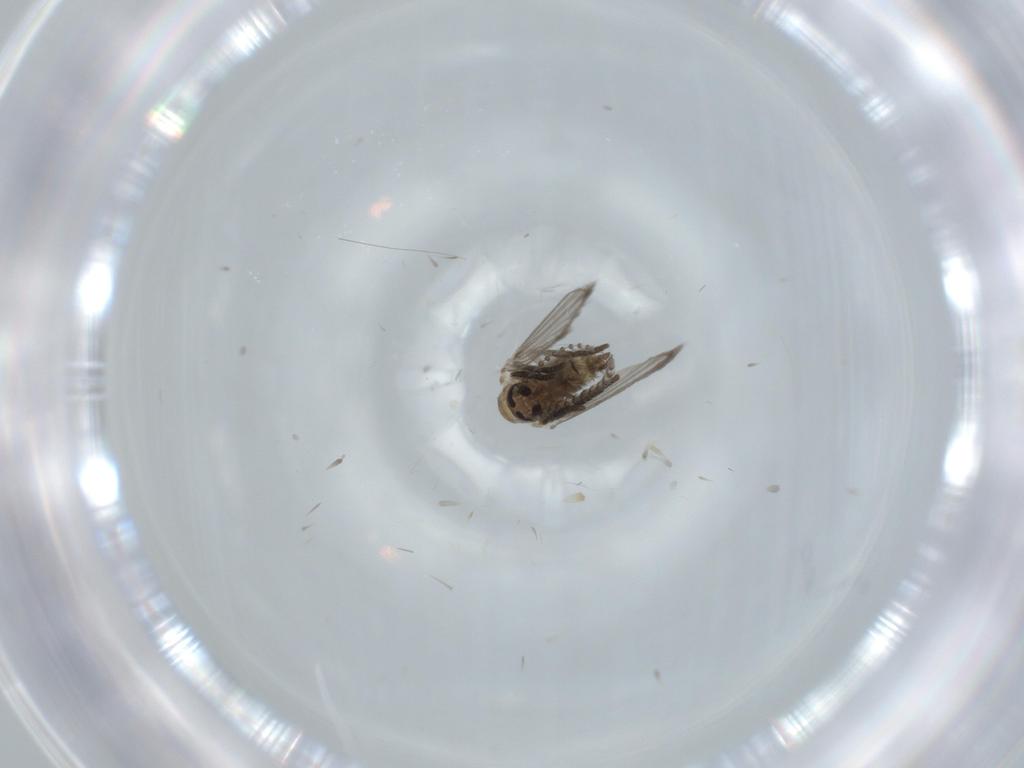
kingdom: Animalia
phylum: Arthropoda
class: Insecta
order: Diptera
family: Psychodidae
